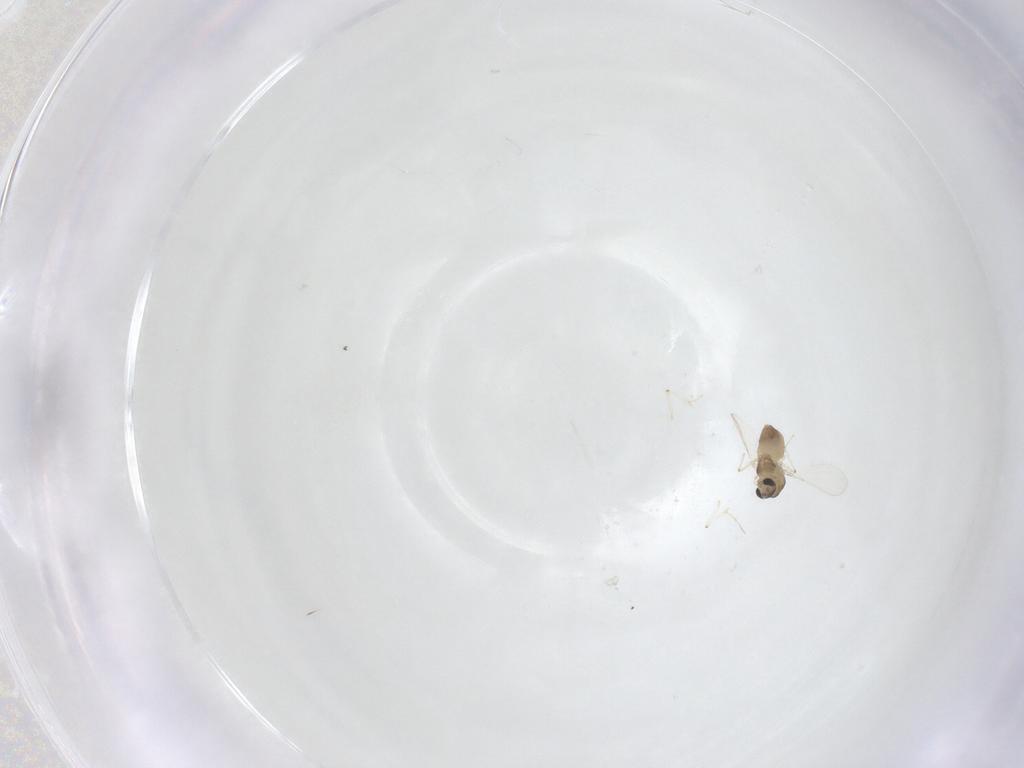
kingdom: Animalia
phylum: Arthropoda
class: Insecta
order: Diptera
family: Chironomidae
